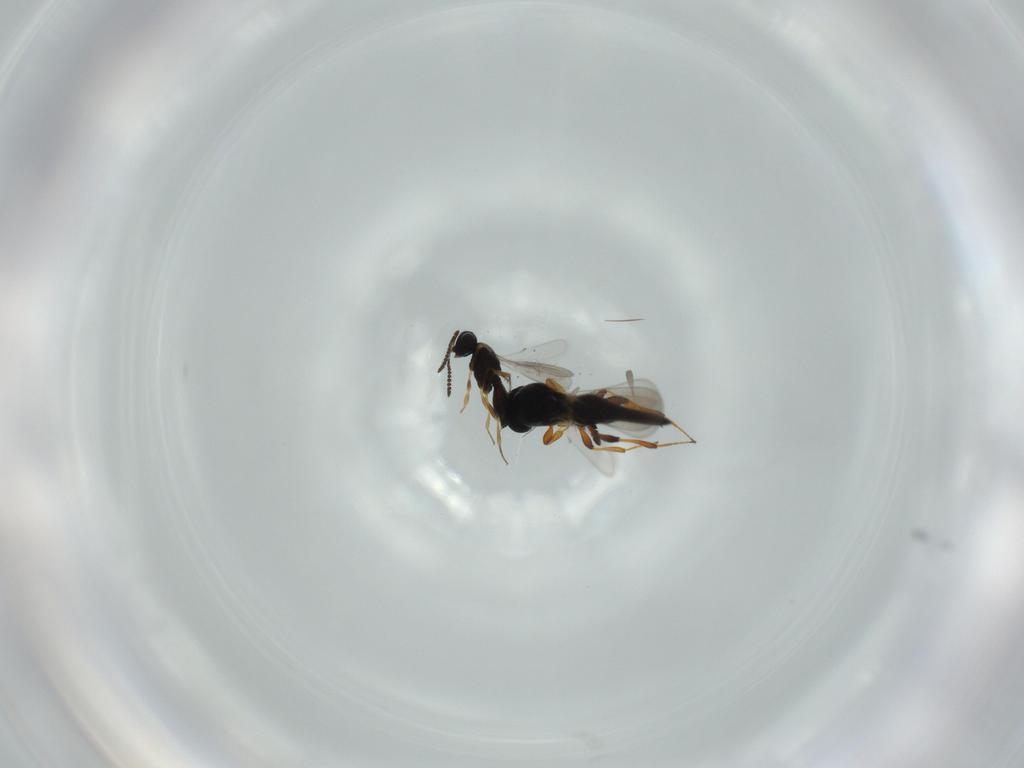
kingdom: Animalia
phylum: Arthropoda
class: Insecta
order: Hymenoptera
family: Scelionidae
